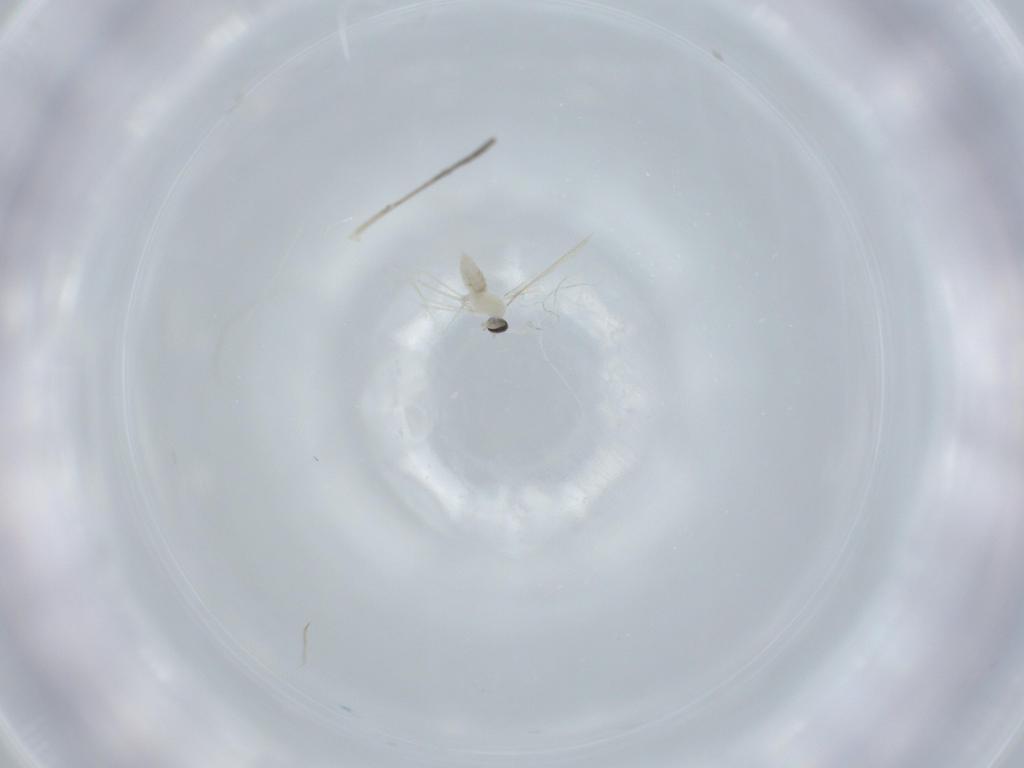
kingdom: Animalia
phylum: Arthropoda
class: Insecta
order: Diptera
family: Psychodidae
